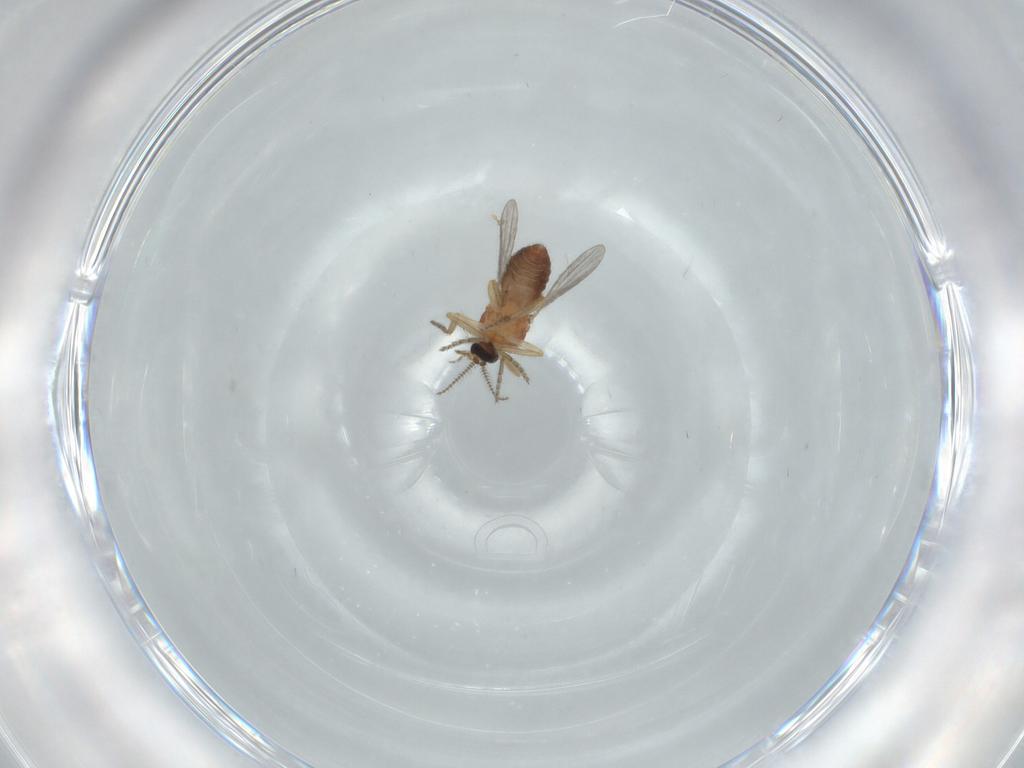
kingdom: Animalia
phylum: Arthropoda
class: Insecta
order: Diptera
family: Ceratopogonidae
